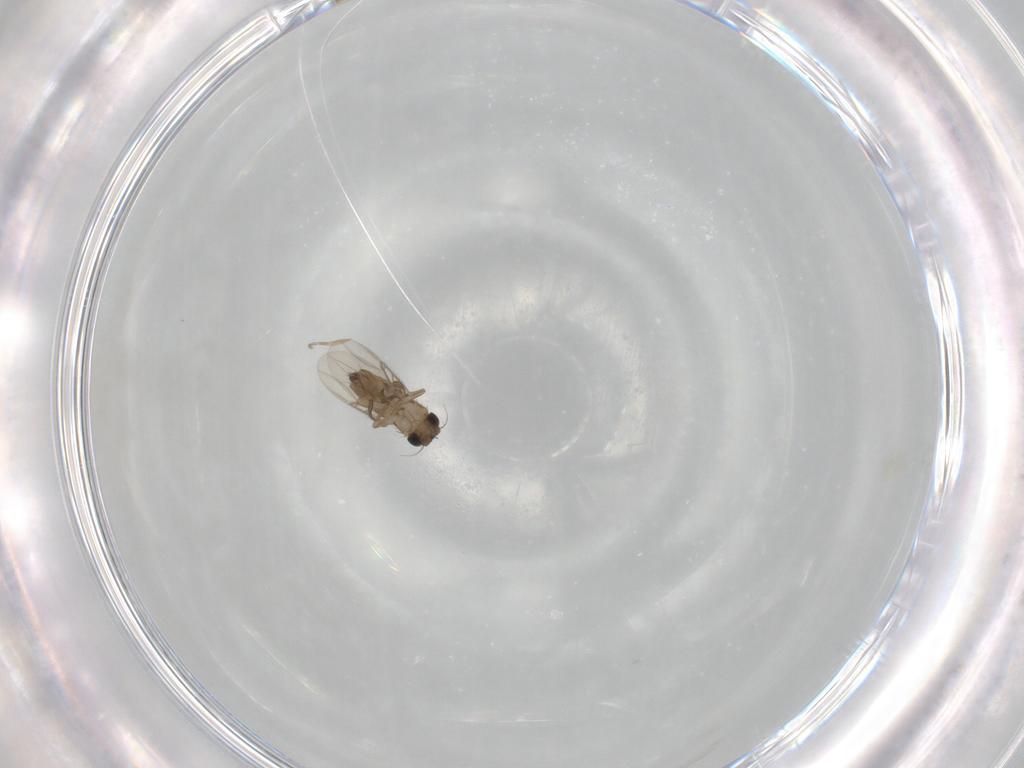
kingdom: Animalia
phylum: Arthropoda
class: Insecta
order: Diptera
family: Phoridae
